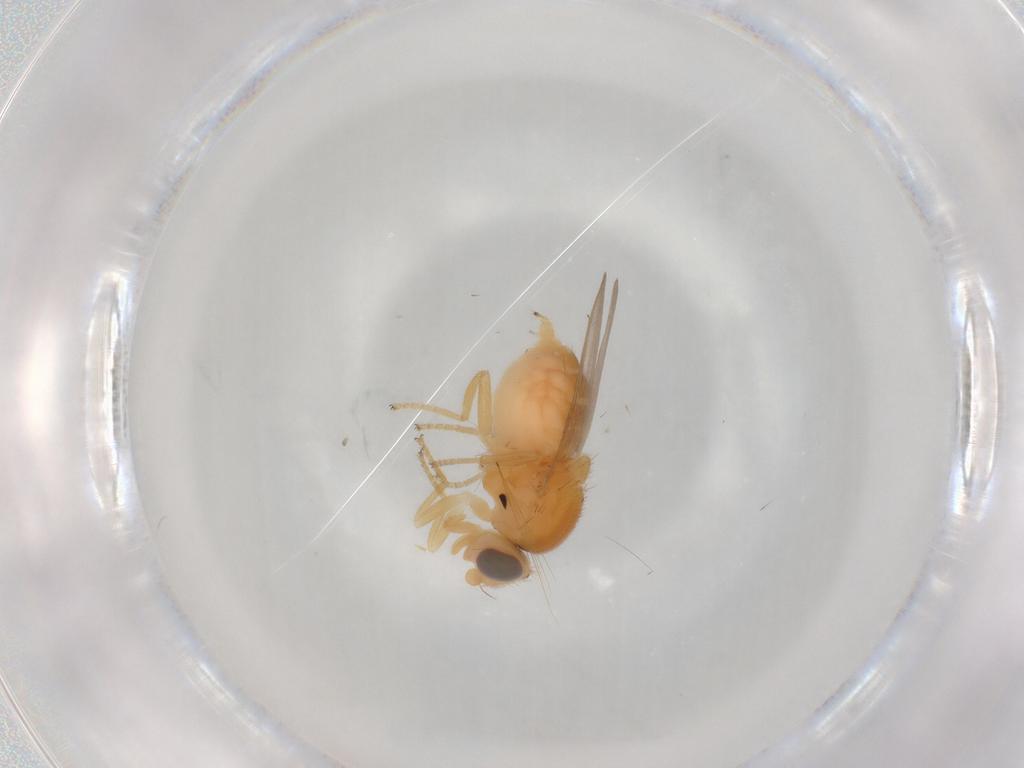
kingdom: Animalia
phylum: Arthropoda
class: Insecta
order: Diptera
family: Chloropidae
